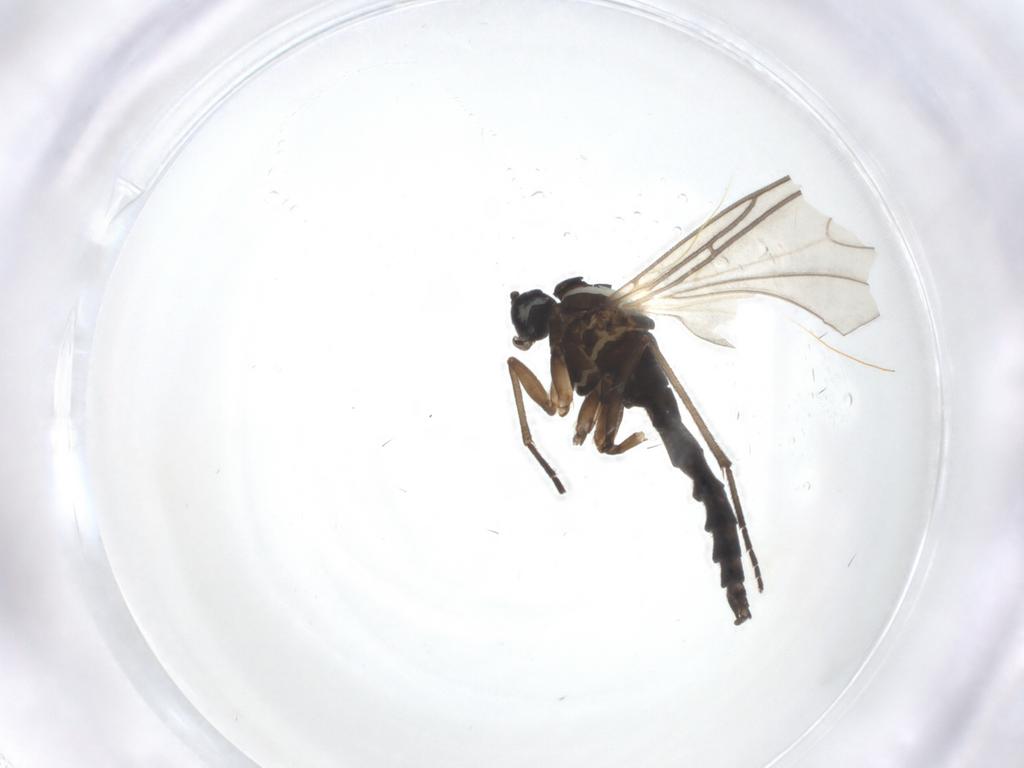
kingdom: Animalia
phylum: Arthropoda
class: Insecta
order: Diptera
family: Sciaridae
